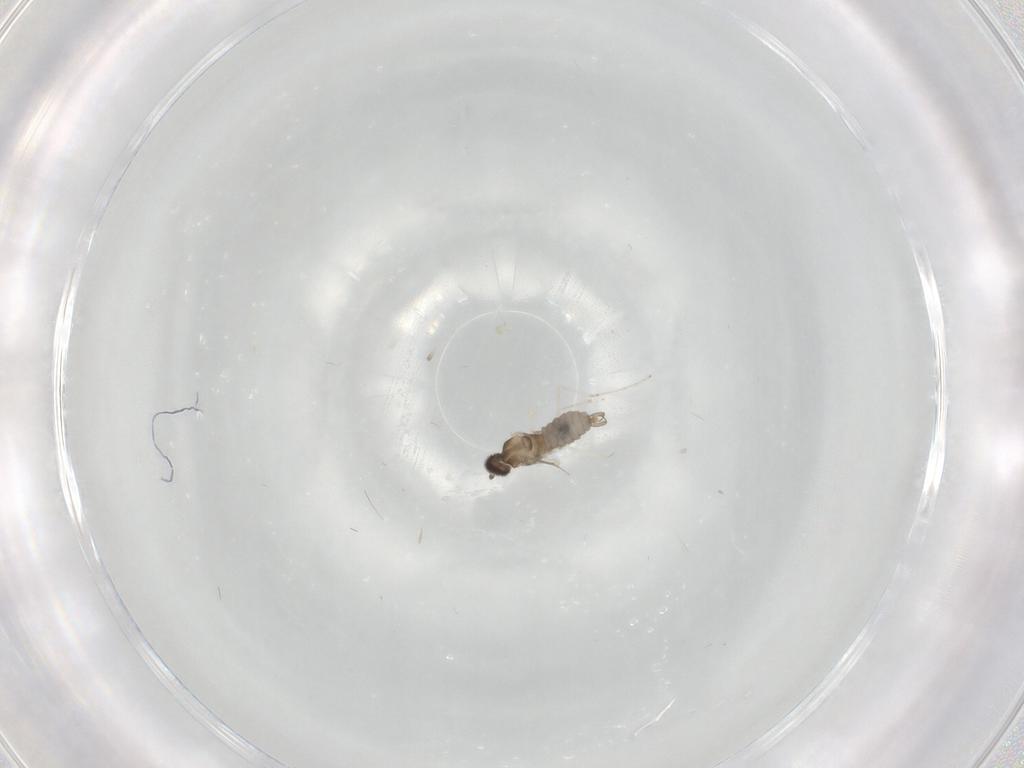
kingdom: Animalia
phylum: Arthropoda
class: Insecta
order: Diptera
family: Cecidomyiidae
